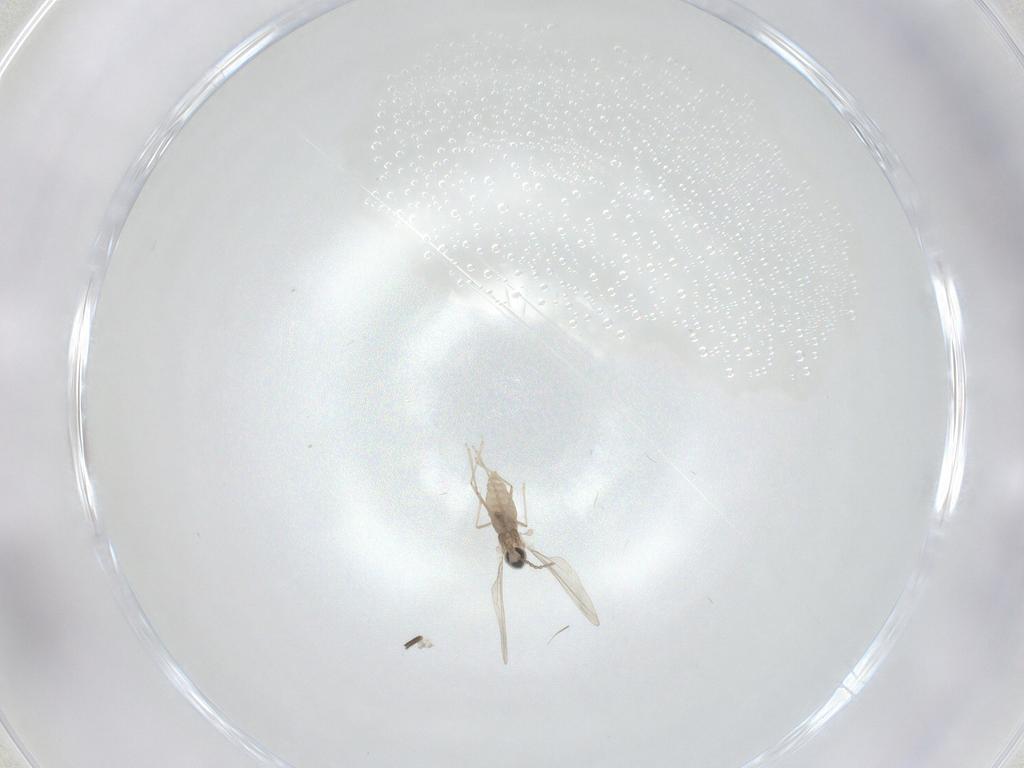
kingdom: Animalia
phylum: Arthropoda
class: Insecta
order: Diptera
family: Cecidomyiidae
